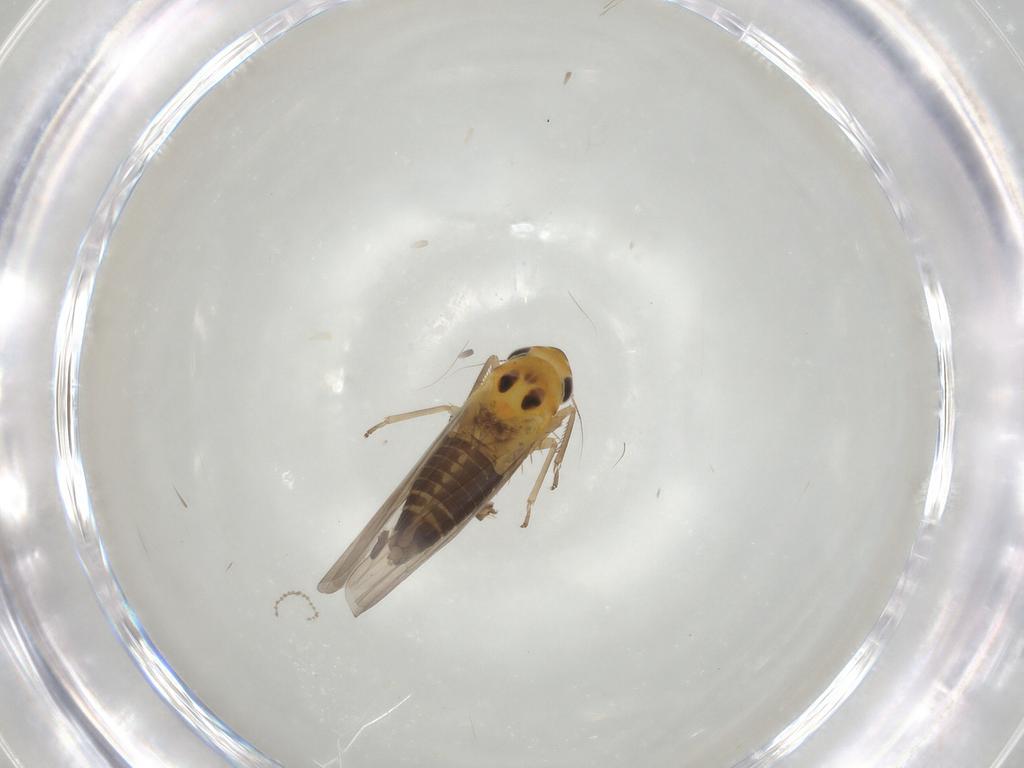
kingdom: Animalia
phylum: Arthropoda
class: Insecta
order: Hemiptera
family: Cicadellidae
